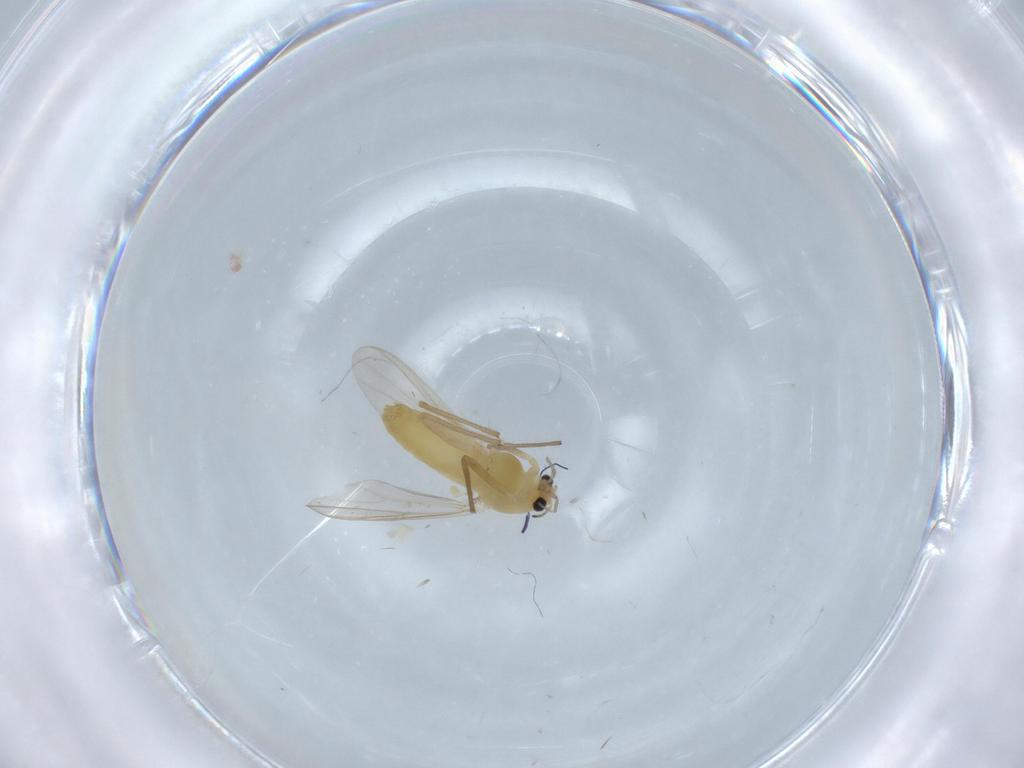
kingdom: Animalia
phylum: Arthropoda
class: Insecta
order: Diptera
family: Chironomidae
